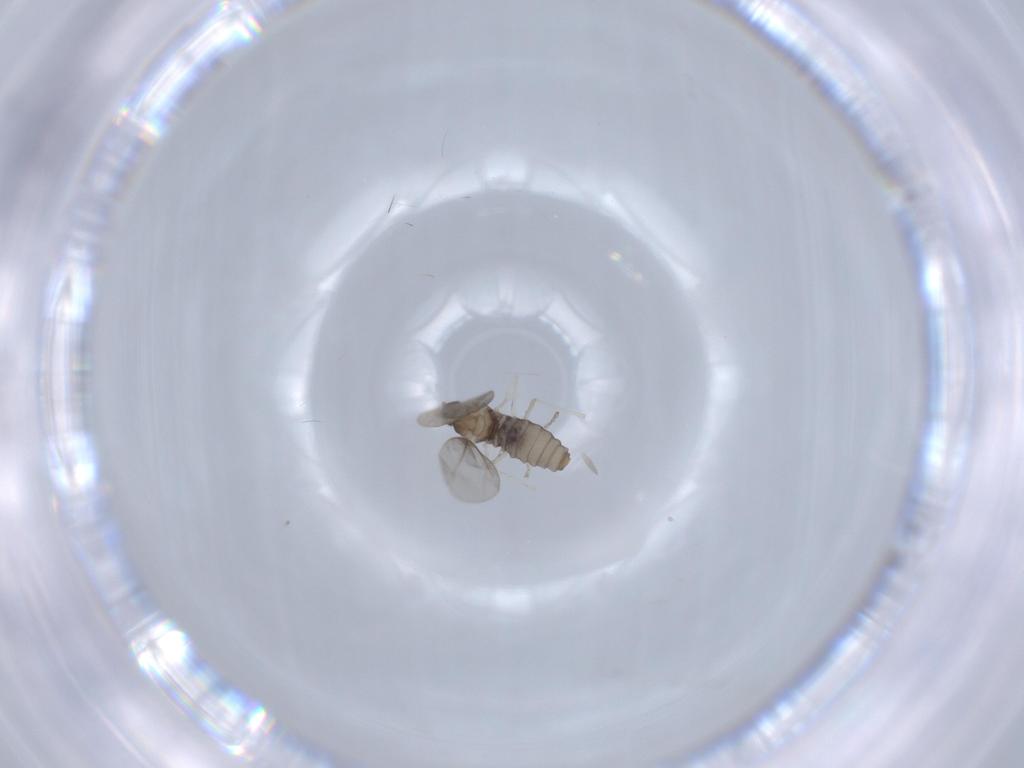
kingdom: Animalia
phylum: Arthropoda
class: Insecta
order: Diptera
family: Cecidomyiidae
